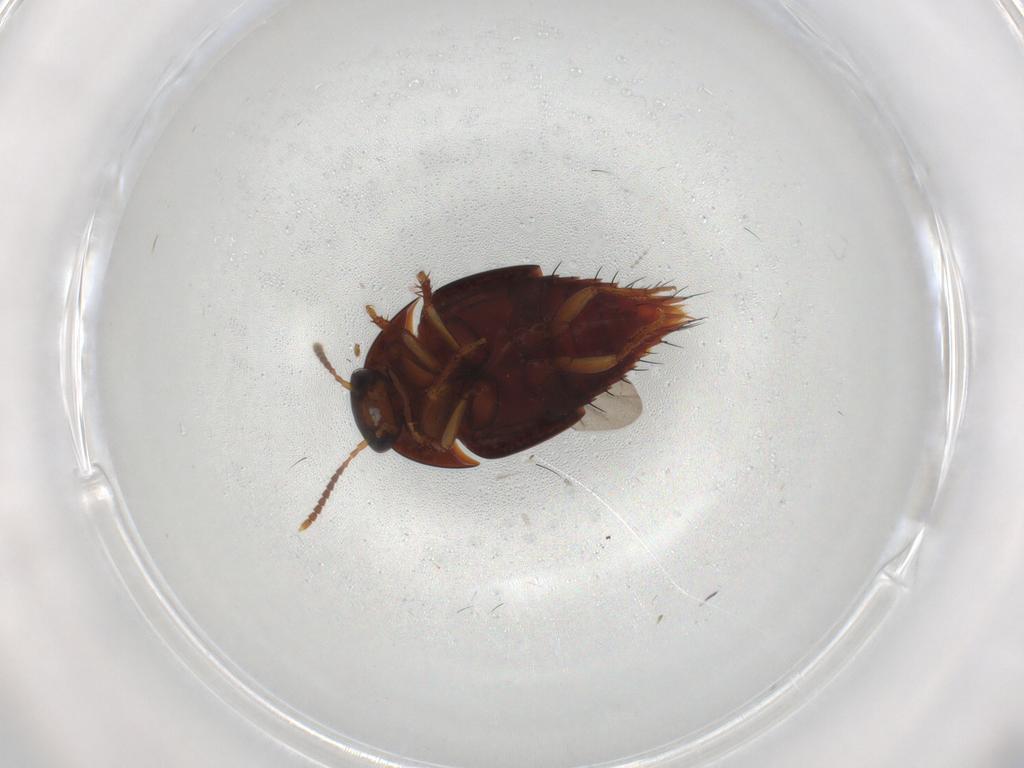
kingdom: Animalia
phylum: Arthropoda
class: Insecta
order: Coleoptera
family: Staphylinidae
